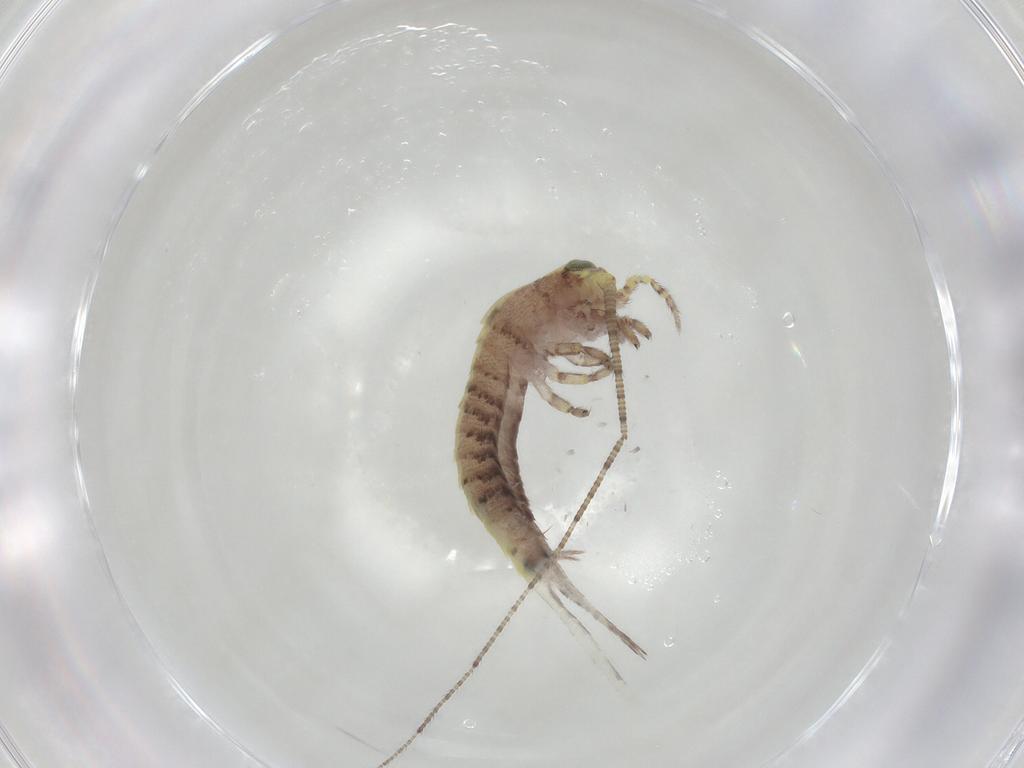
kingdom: Animalia
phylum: Arthropoda
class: Insecta
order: Archaeognatha
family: Machilidae
